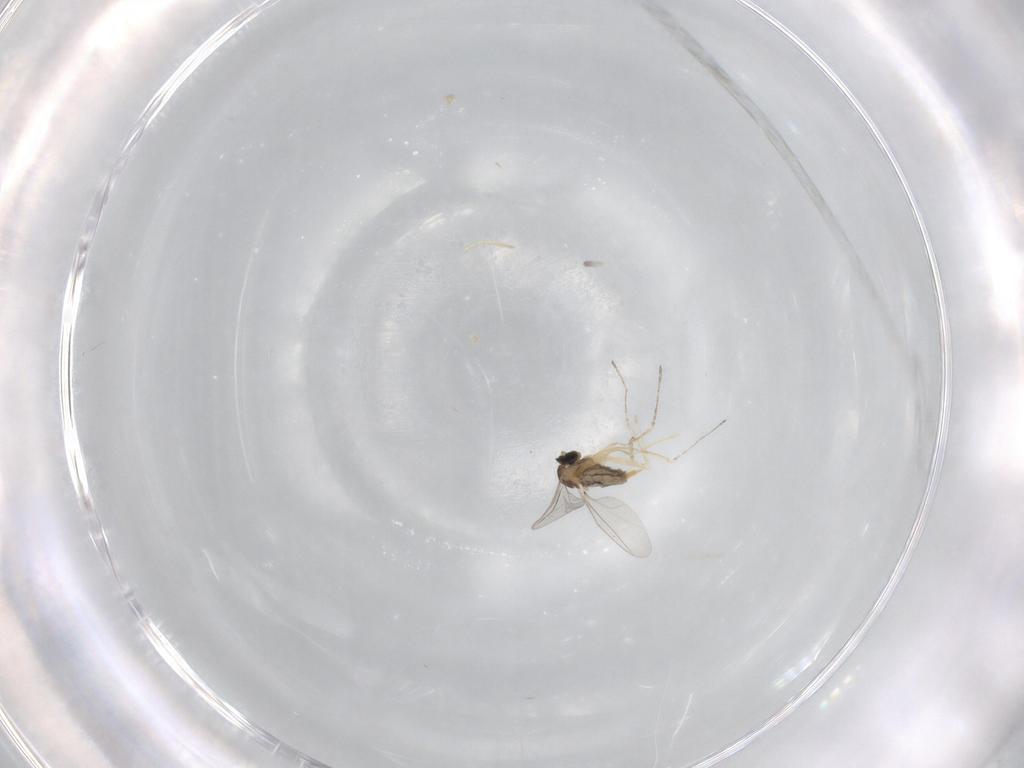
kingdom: Animalia
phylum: Arthropoda
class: Insecta
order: Diptera
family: Cecidomyiidae
